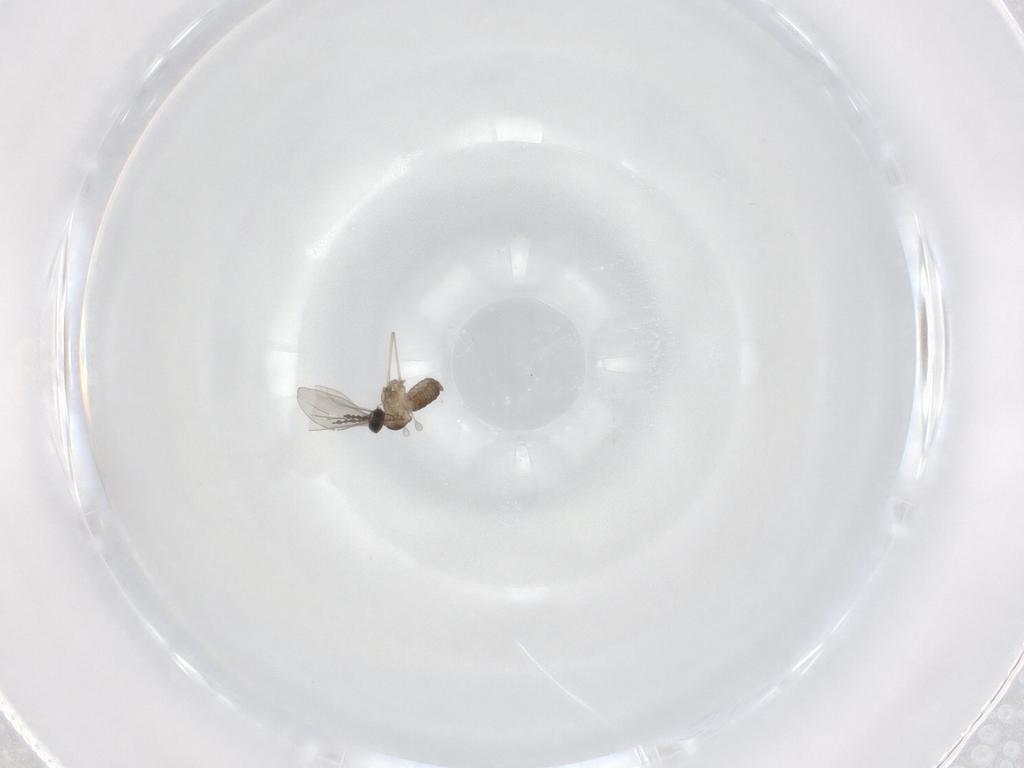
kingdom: Animalia
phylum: Arthropoda
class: Insecta
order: Diptera
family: Cecidomyiidae
